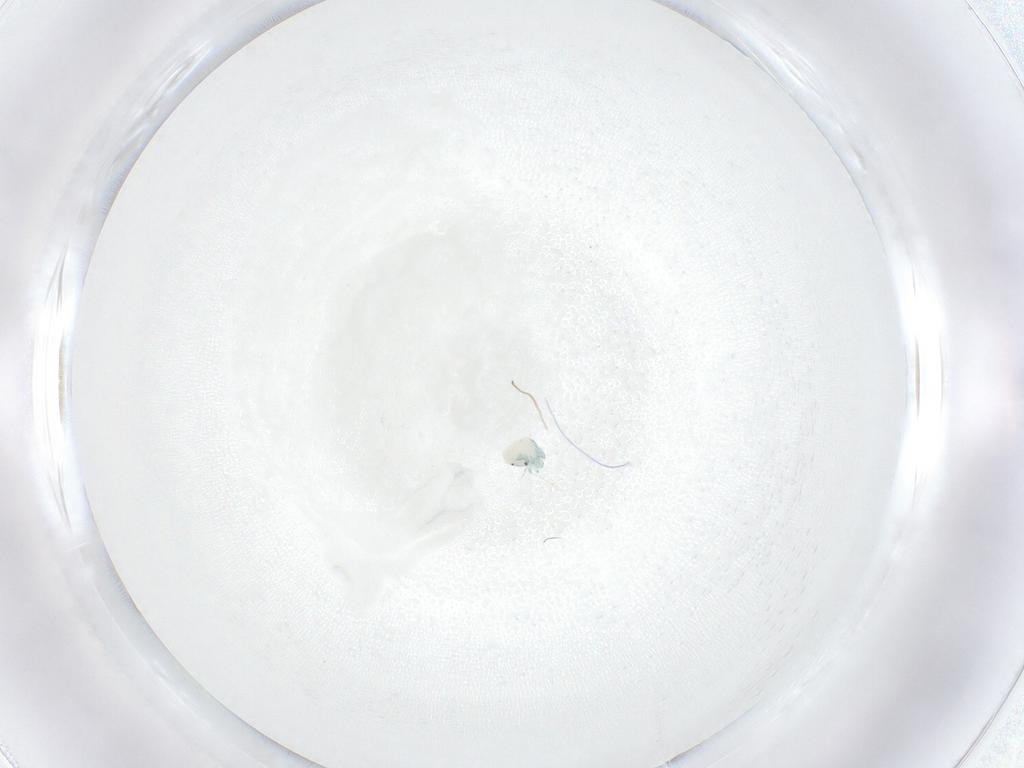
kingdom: Animalia
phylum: Arthropoda
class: Arachnida
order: Trombidiformes
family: Arrenuridae
